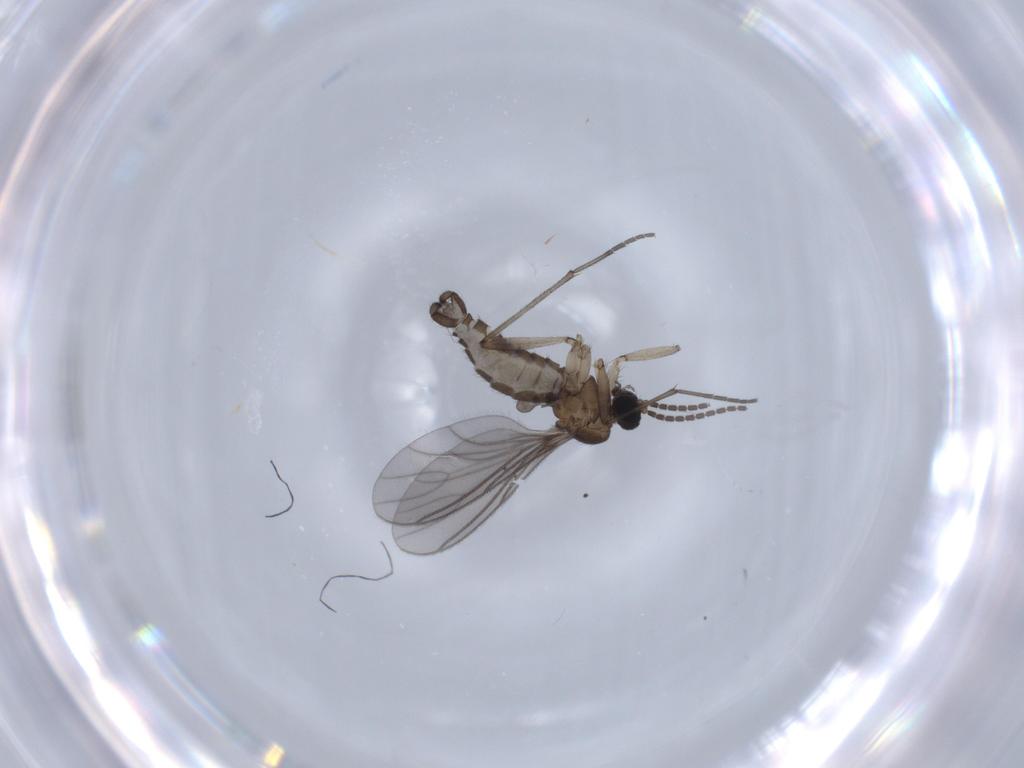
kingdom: Animalia
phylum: Arthropoda
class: Insecta
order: Diptera
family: Sciaridae
